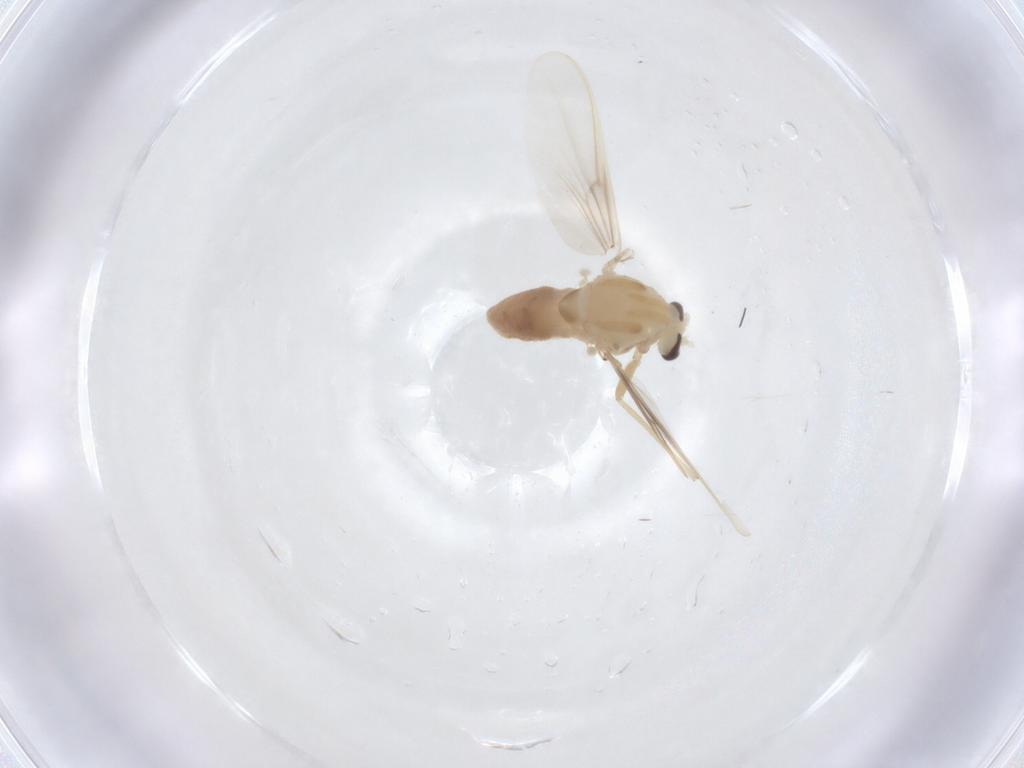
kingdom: Animalia
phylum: Arthropoda
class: Insecta
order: Diptera
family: Chironomidae
